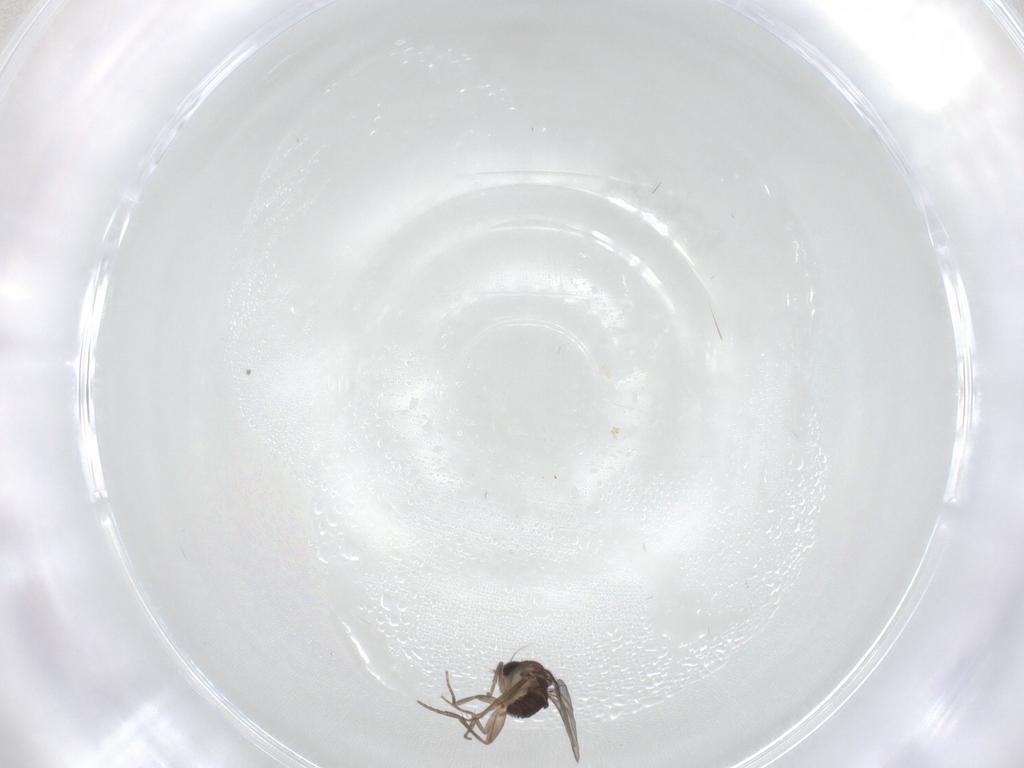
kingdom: Animalia
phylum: Arthropoda
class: Insecta
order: Diptera
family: Phoridae
